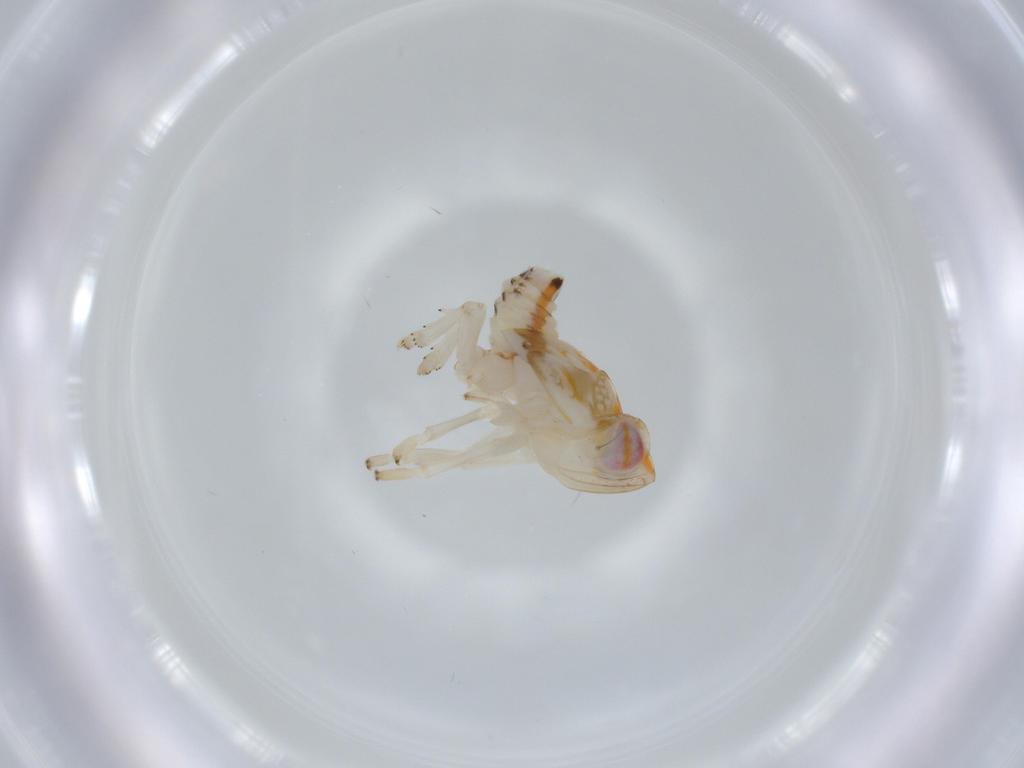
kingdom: Animalia
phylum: Arthropoda
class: Insecta
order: Hemiptera
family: Nogodinidae
